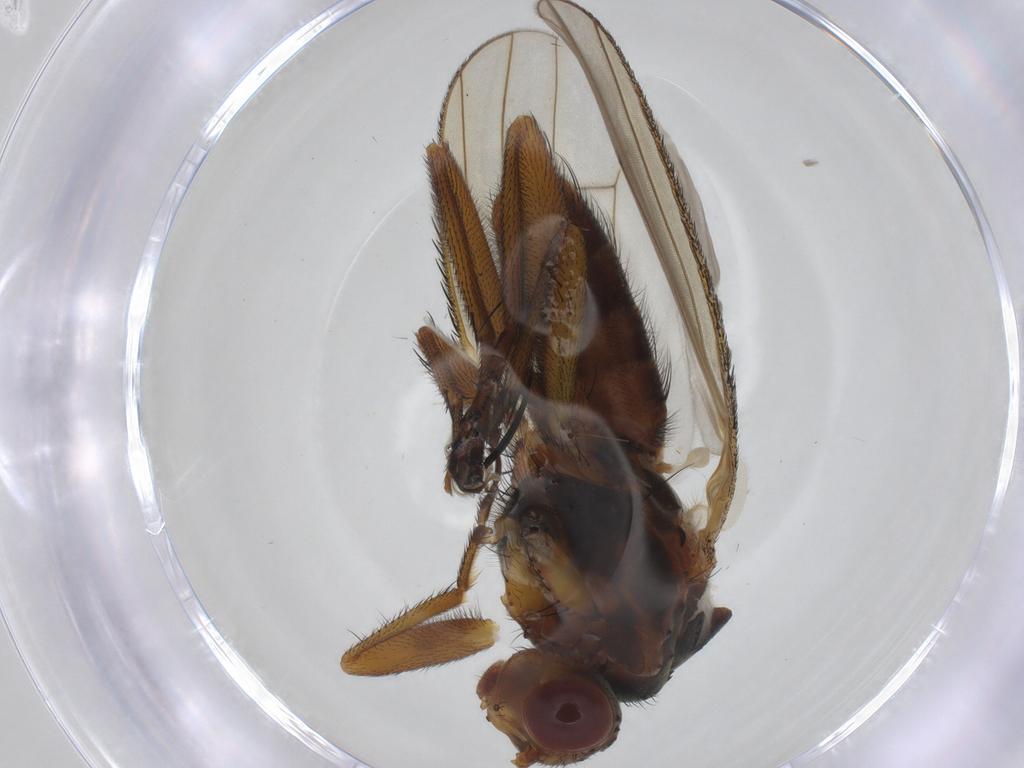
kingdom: Animalia
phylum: Arthropoda
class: Insecta
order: Diptera
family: Heleomyzidae
